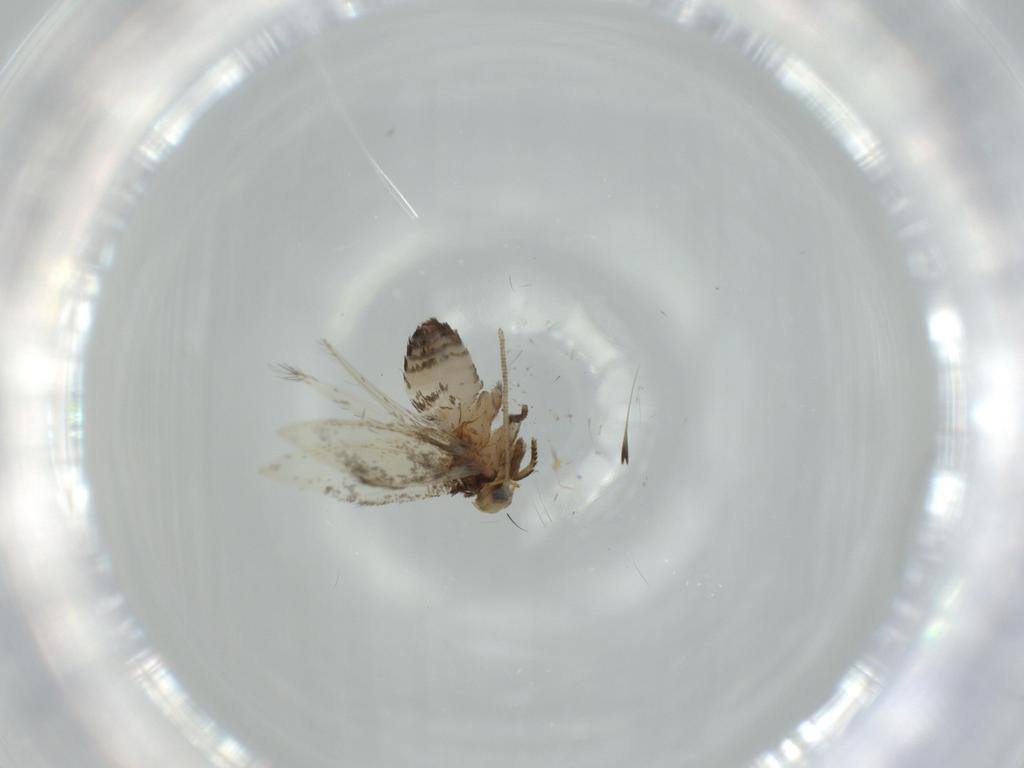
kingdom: Animalia
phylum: Arthropoda
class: Insecta
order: Lepidoptera
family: Nepticulidae
